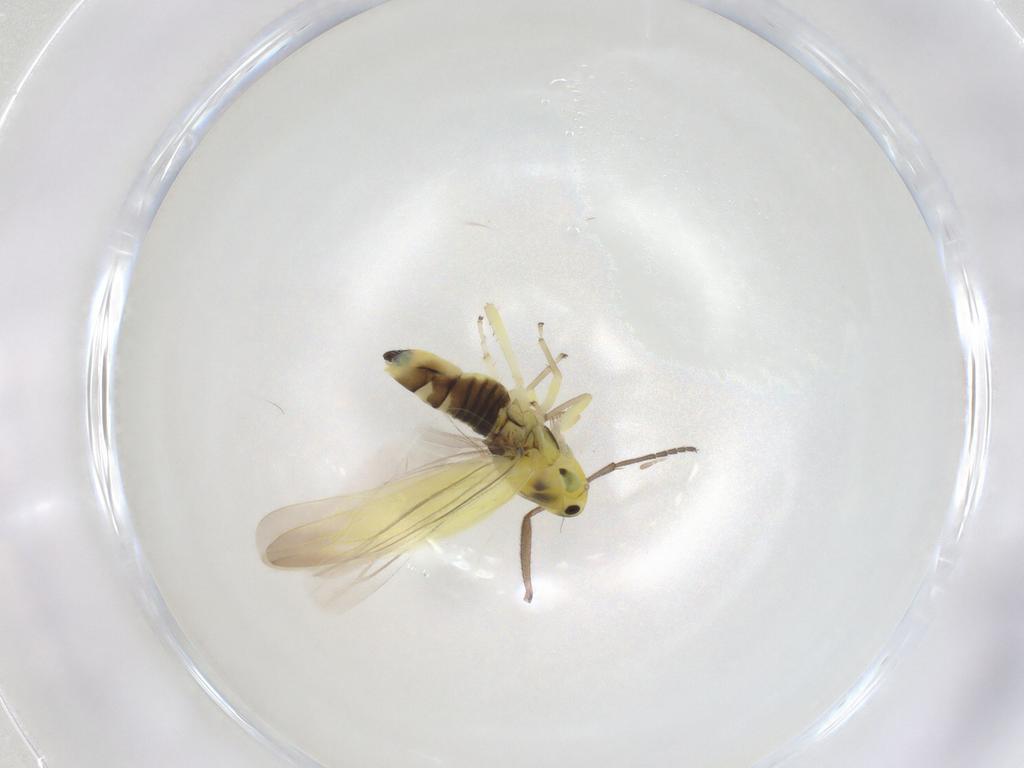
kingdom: Animalia
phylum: Arthropoda
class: Insecta
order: Hemiptera
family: Cicadellidae
